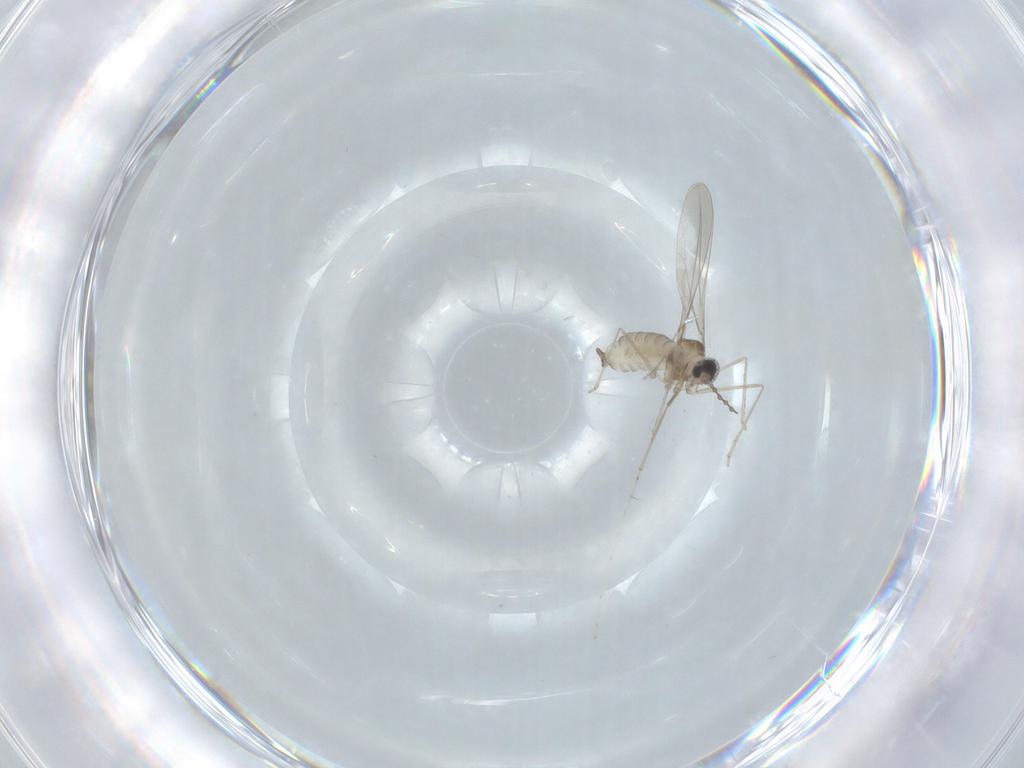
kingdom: Animalia
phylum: Arthropoda
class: Insecta
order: Diptera
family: Cecidomyiidae
